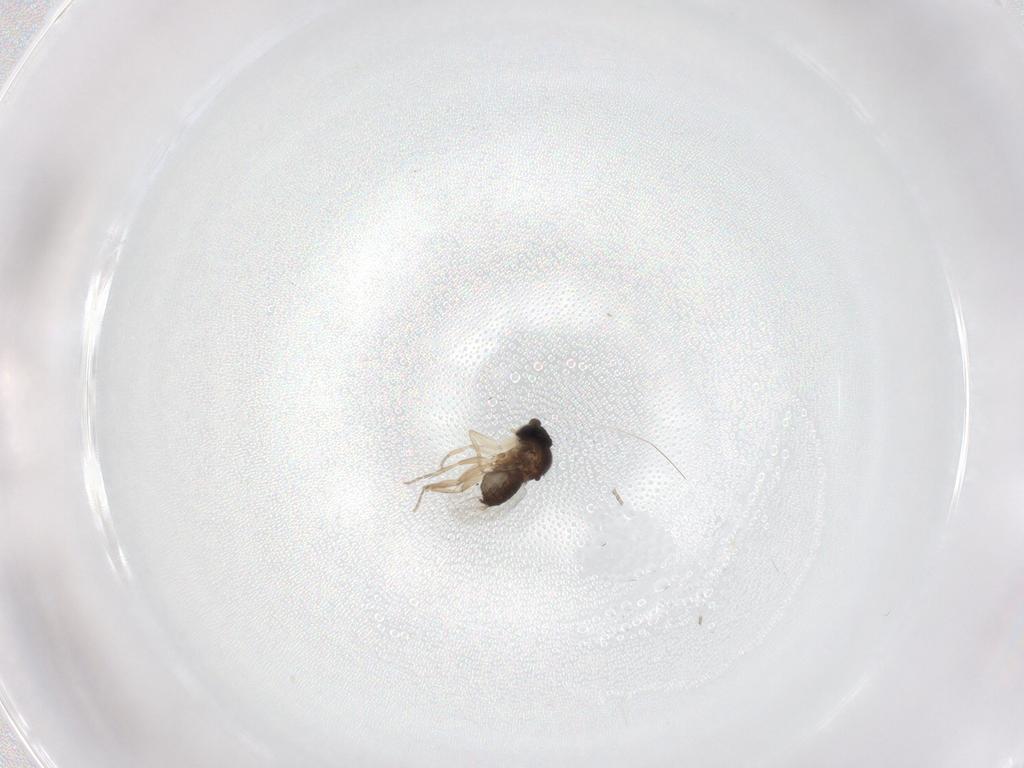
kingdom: Animalia
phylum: Arthropoda
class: Insecta
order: Diptera
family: Phoridae
